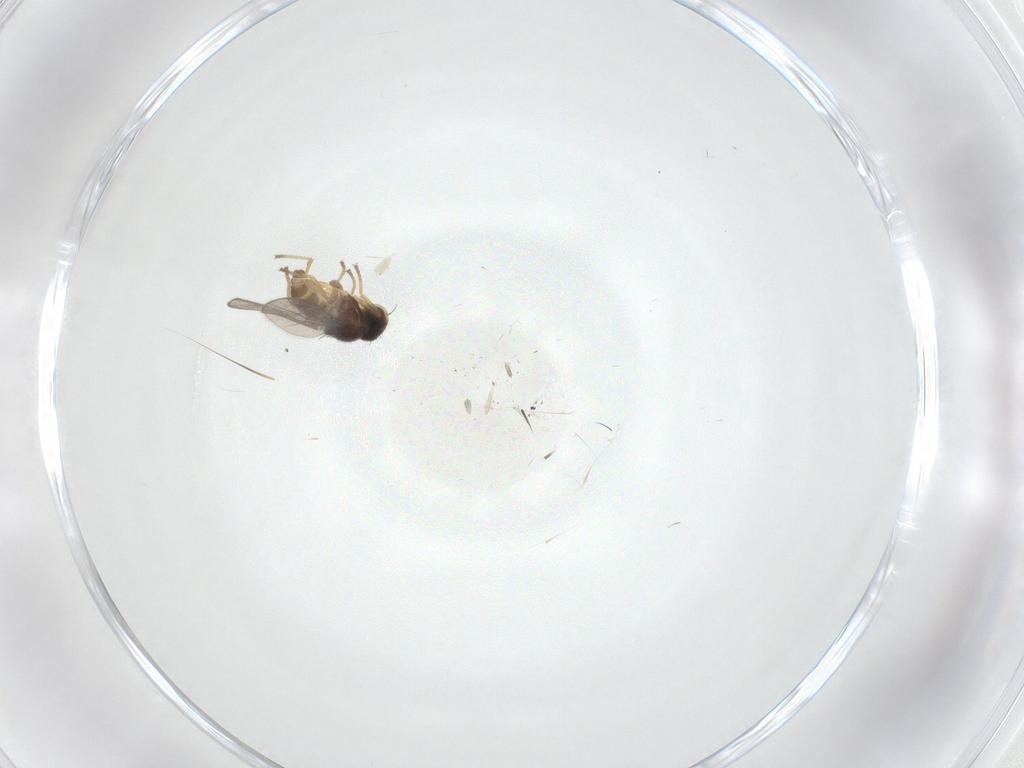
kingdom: Animalia
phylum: Arthropoda
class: Insecta
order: Diptera
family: Chloropidae
